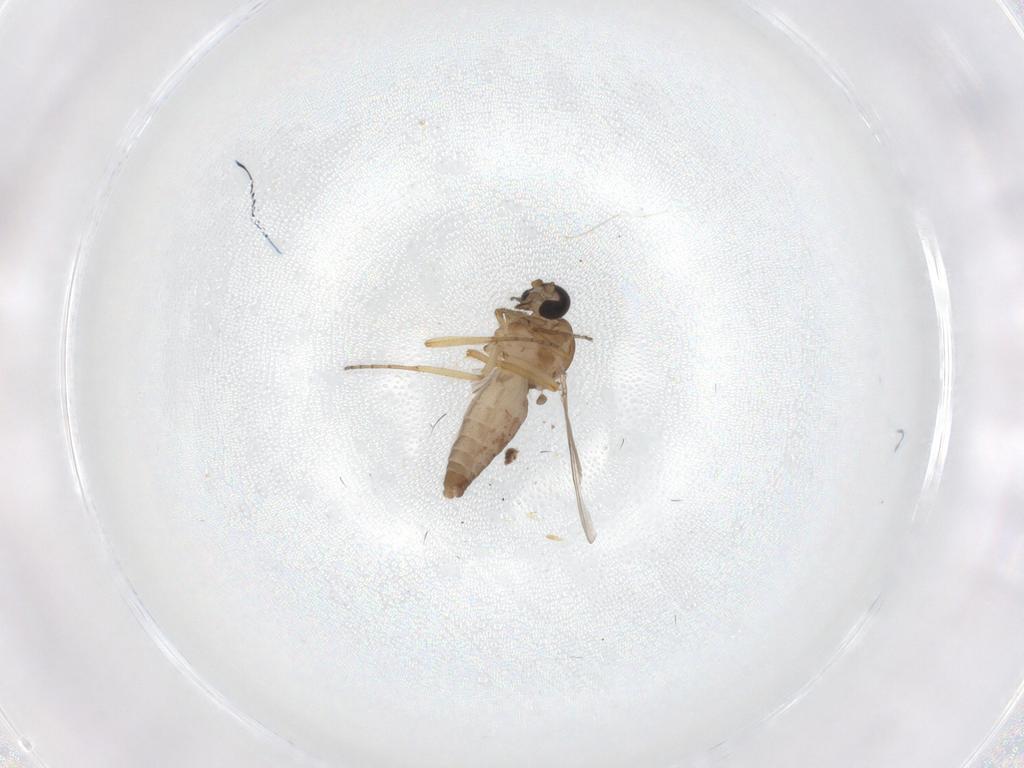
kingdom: Animalia
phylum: Arthropoda
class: Insecta
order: Diptera
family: Ceratopogonidae
